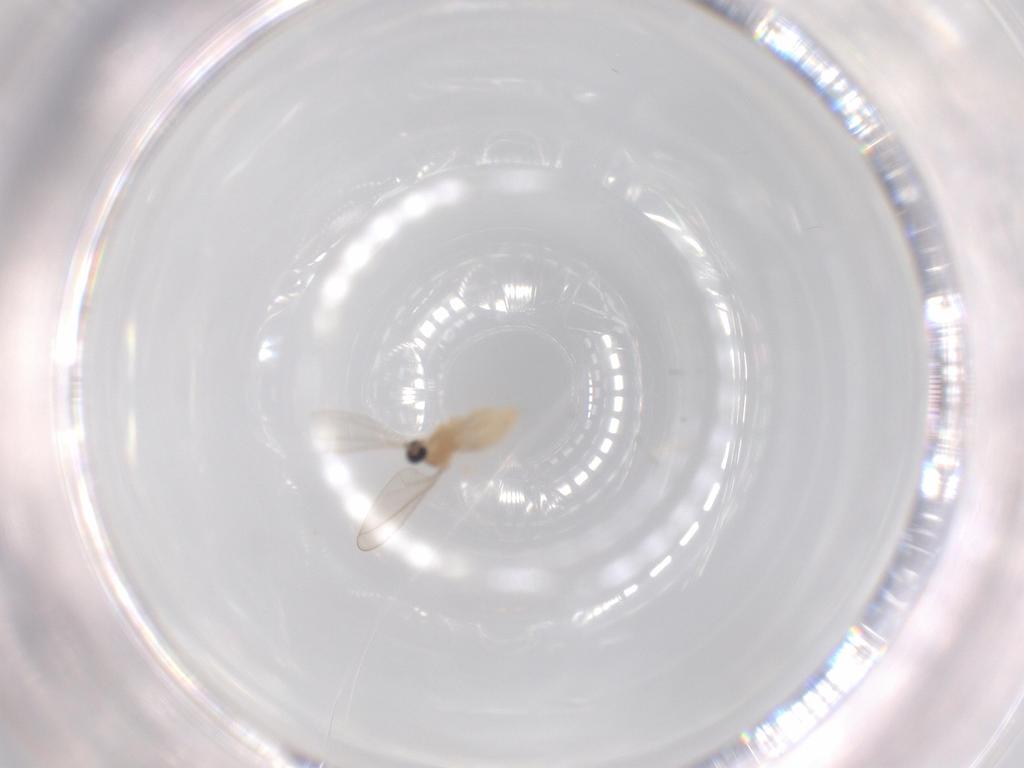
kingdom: Animalia
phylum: Arthropoda
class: Insecta
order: Diptera
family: Cecidomyiidae
